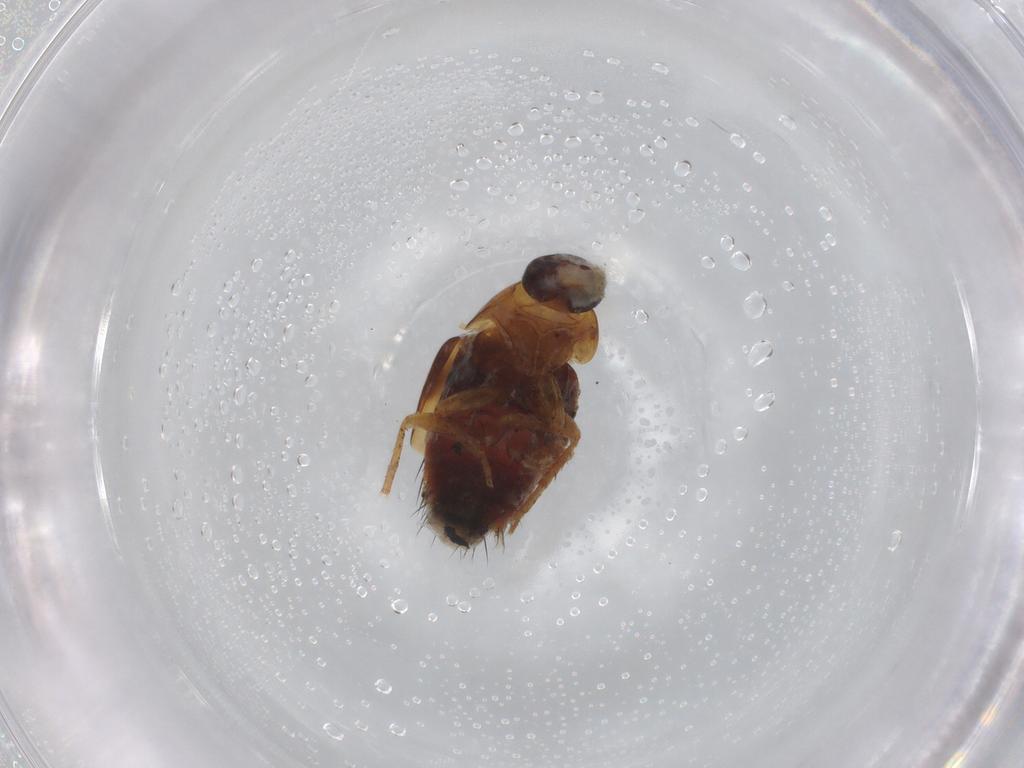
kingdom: Animalia
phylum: Arthropoda
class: Insecta
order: Coleoptera
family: Staphylinidae
